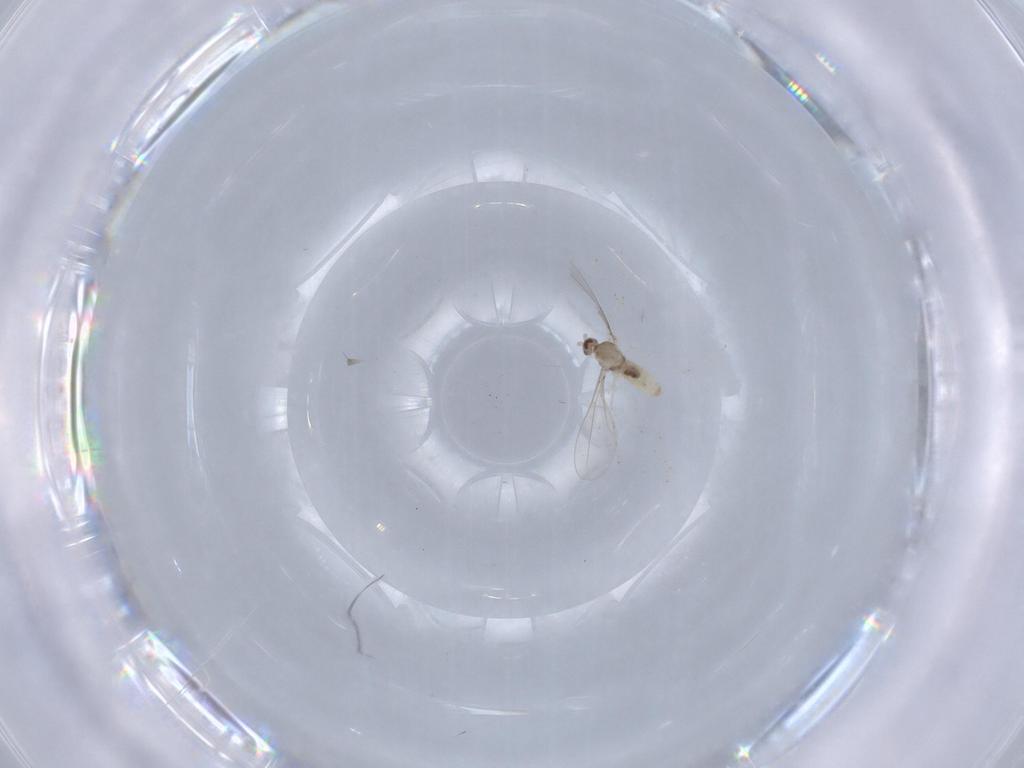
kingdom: Animalia
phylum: Arthropoda
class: Insecta
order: Diptera
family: Cecidomyiidae
